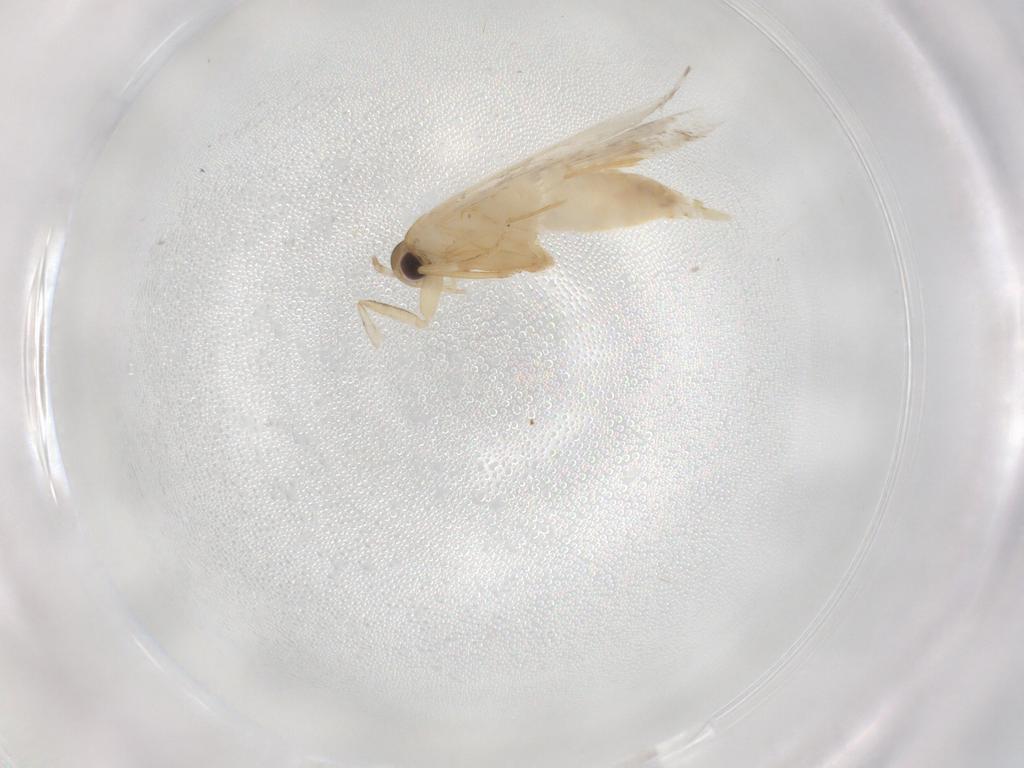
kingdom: Animalia
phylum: Arthropoda
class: Insecta
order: Lepidoptera
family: Autostichidae
